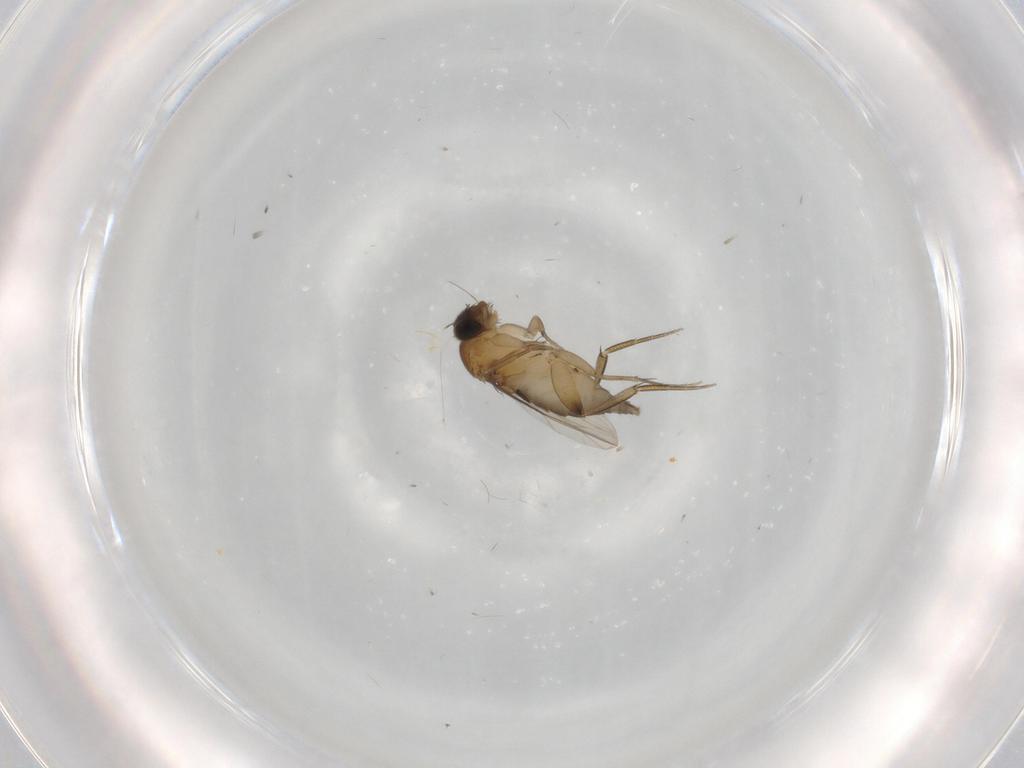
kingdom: Animalia
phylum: Arthropoda
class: Insecta
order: Diptera
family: Phoridae
